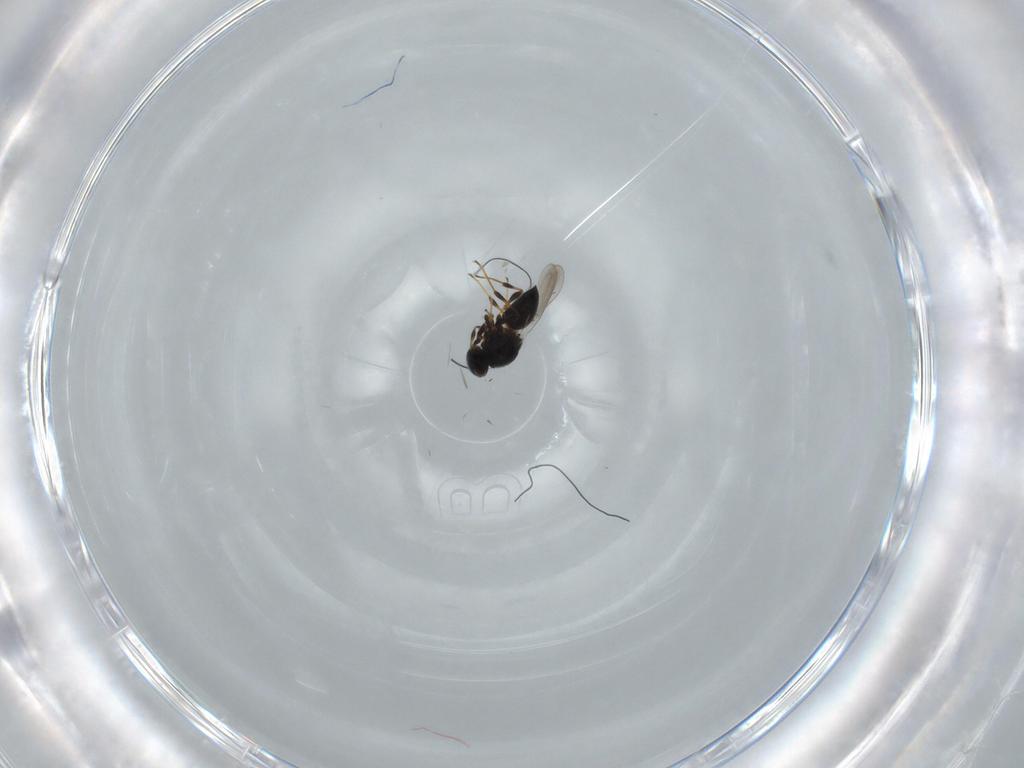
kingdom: Animalia
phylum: Arthropoda
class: Insecta
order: Hymenoptera
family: Platygastridae
